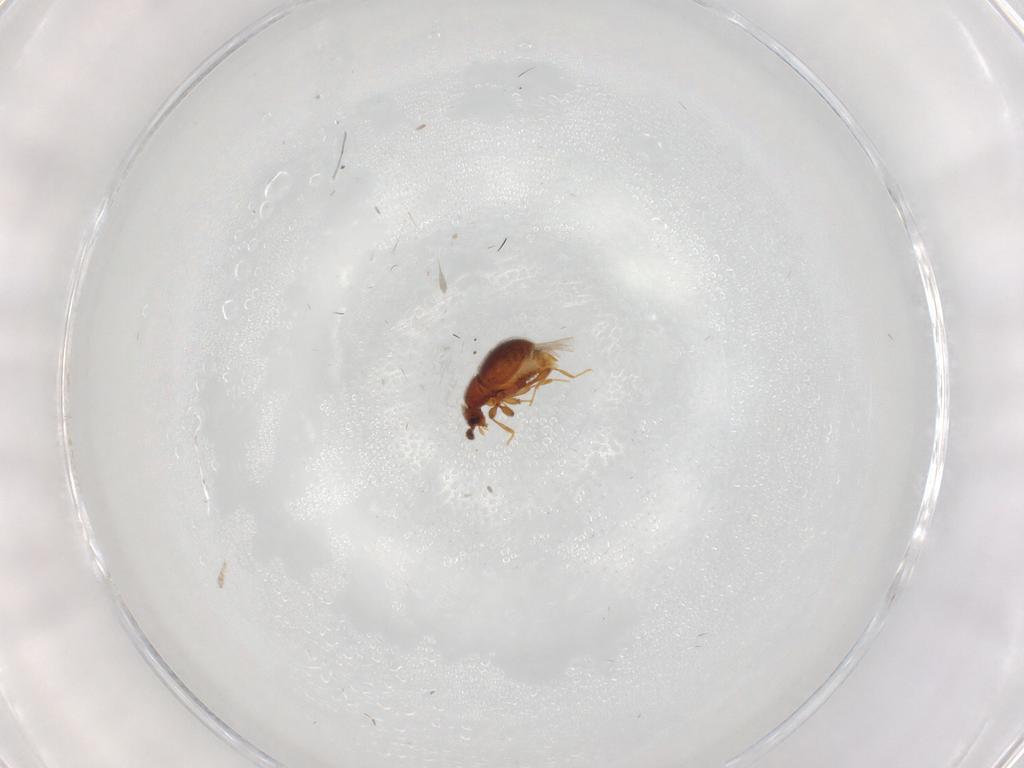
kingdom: Animalia
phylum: Arthropoda
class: Insecta
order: Coleoptera
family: Staphylinidae
